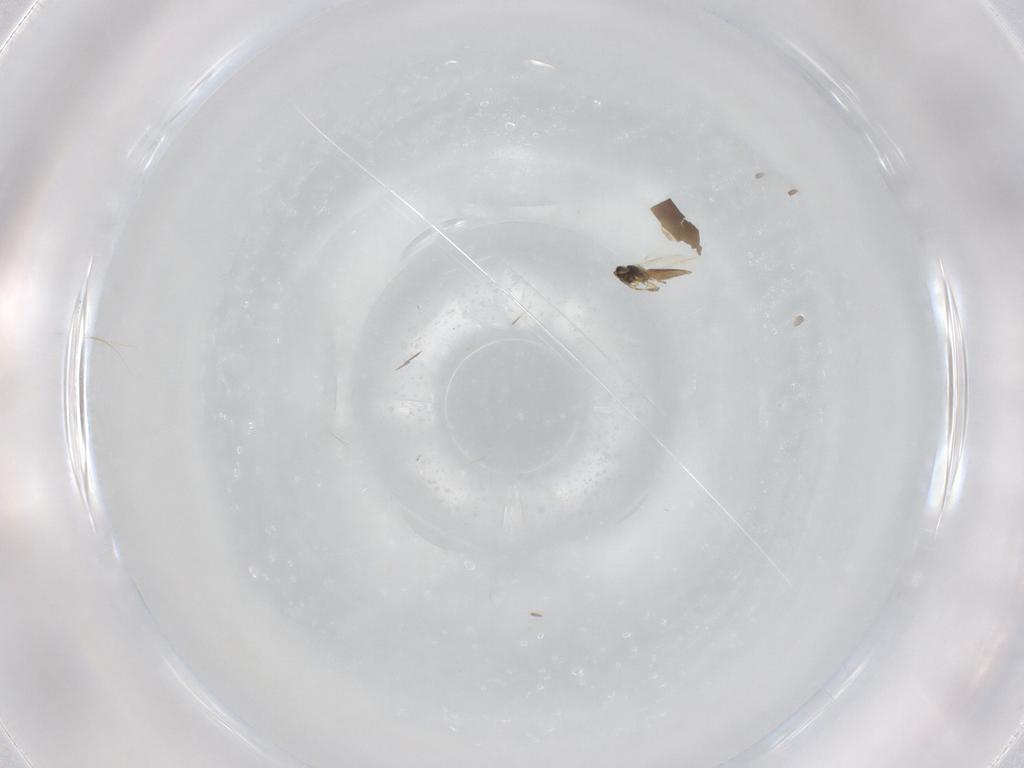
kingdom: Animalia
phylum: Arthropoda
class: Insecta
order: Hymenoptera
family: Scelionidae
